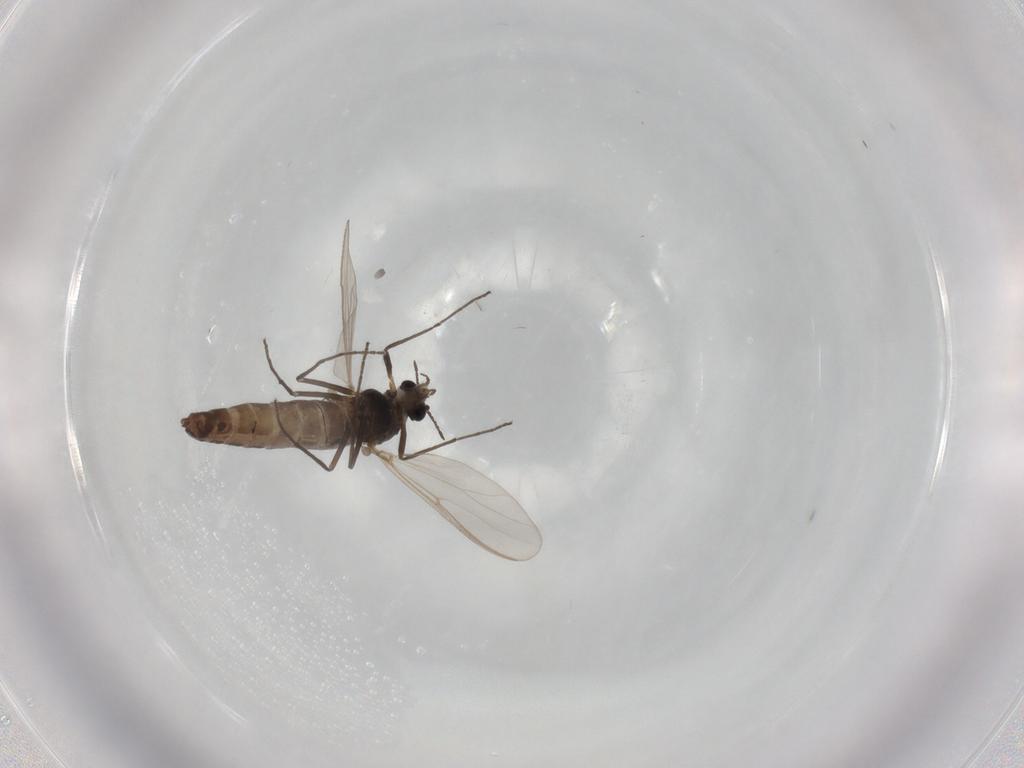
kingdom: Animalia
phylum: Arthropoda
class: Insecta
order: Diptera
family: Hybotidae
